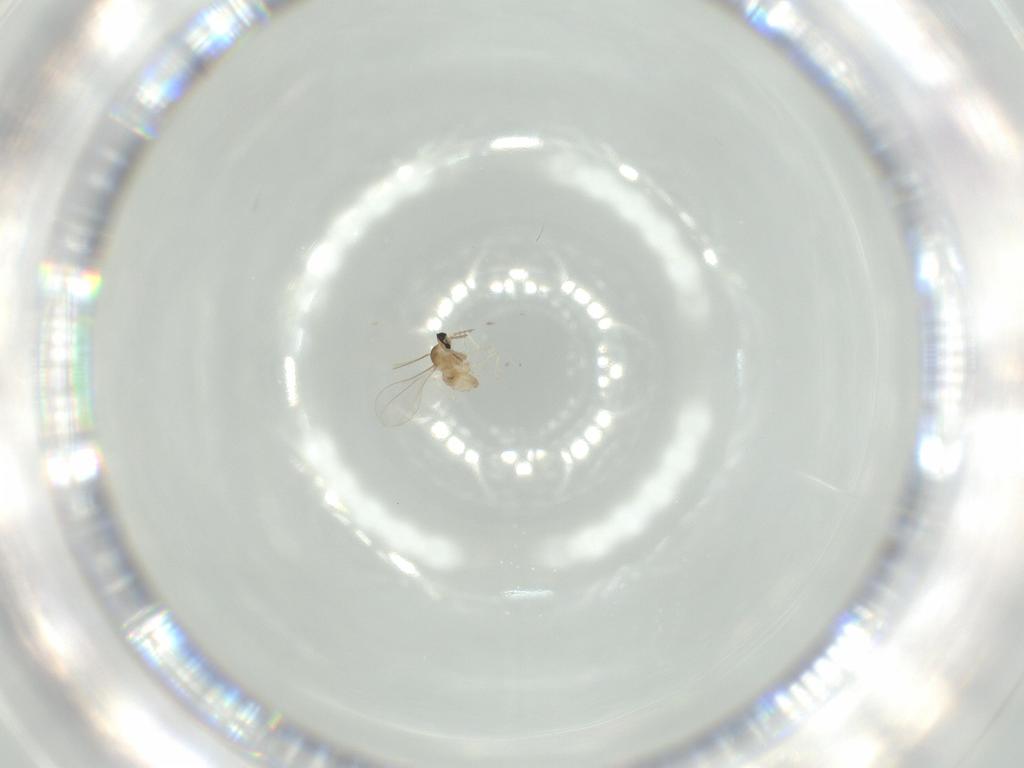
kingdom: Animalia
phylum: Arthropoda
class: Insecta
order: Diptera
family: Cecidomyiidae
